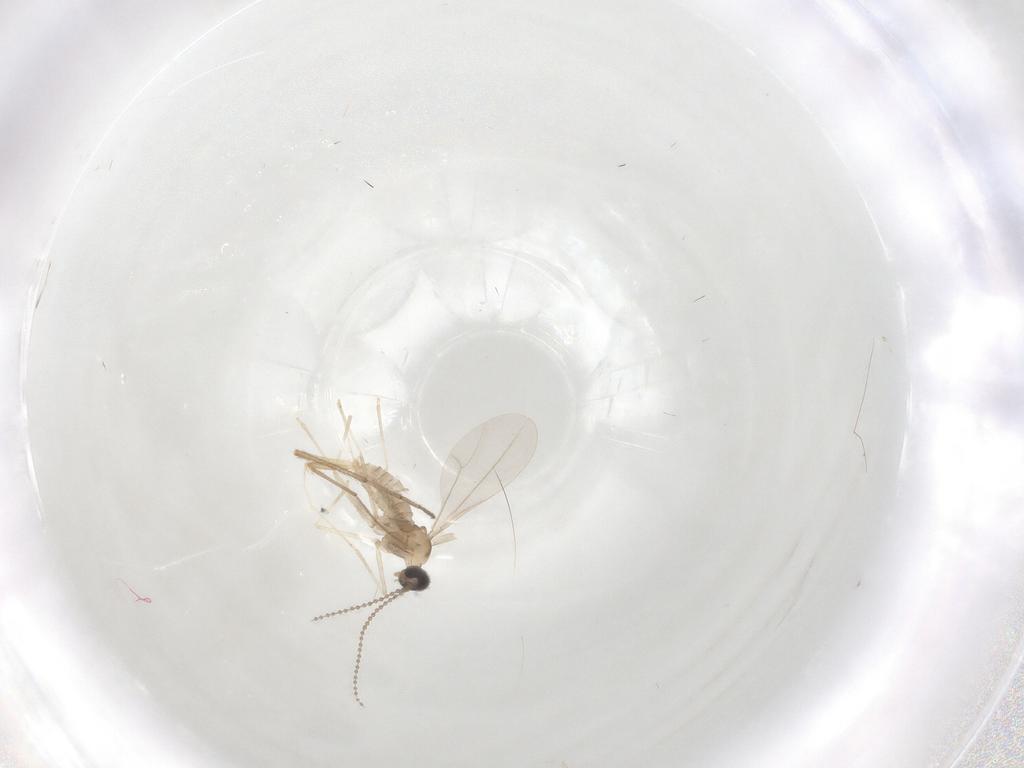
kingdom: Animalia
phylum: Arthropoda
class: Insecta
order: Diptera
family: Cecidomyiidae
